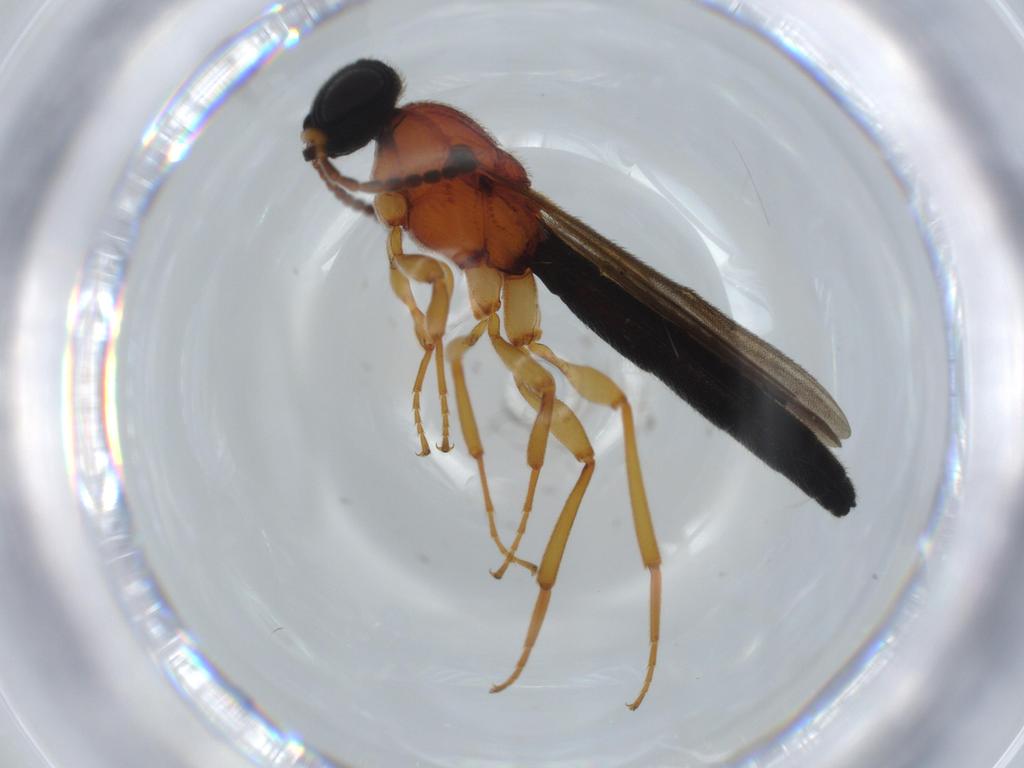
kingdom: Animalia
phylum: Arthropoda
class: Insecta
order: Hymenoptera
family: Scelionidae
